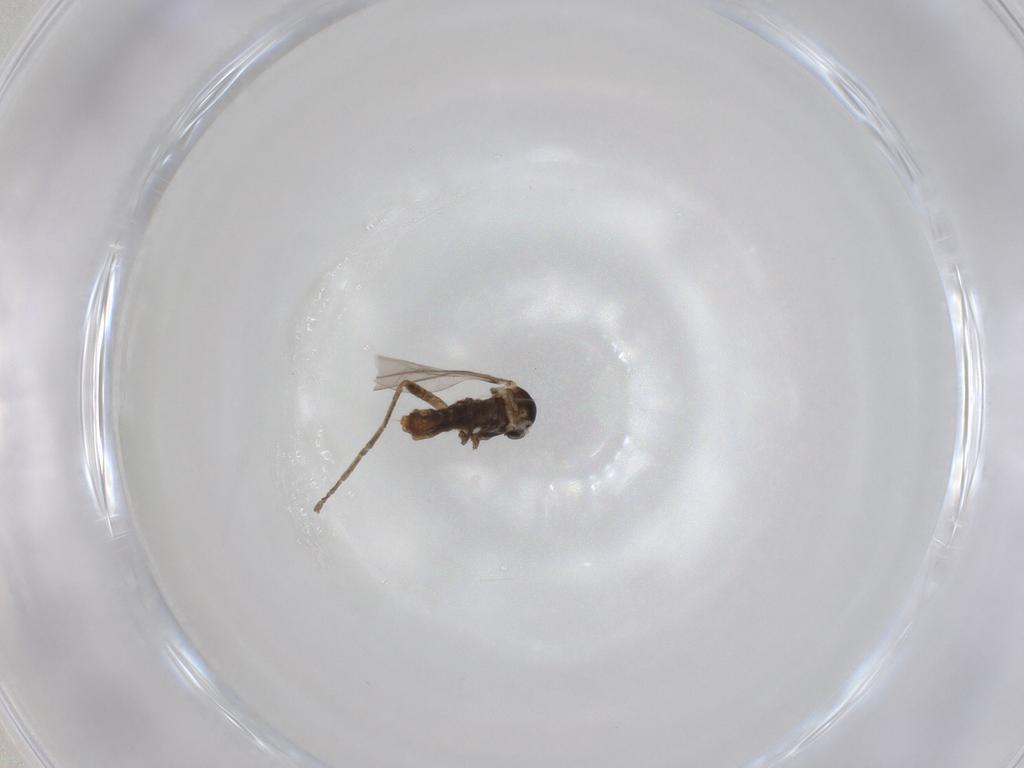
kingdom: Animalia
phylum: Arthropoda
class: Insecta
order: Diptera
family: Cecidomyiidae
